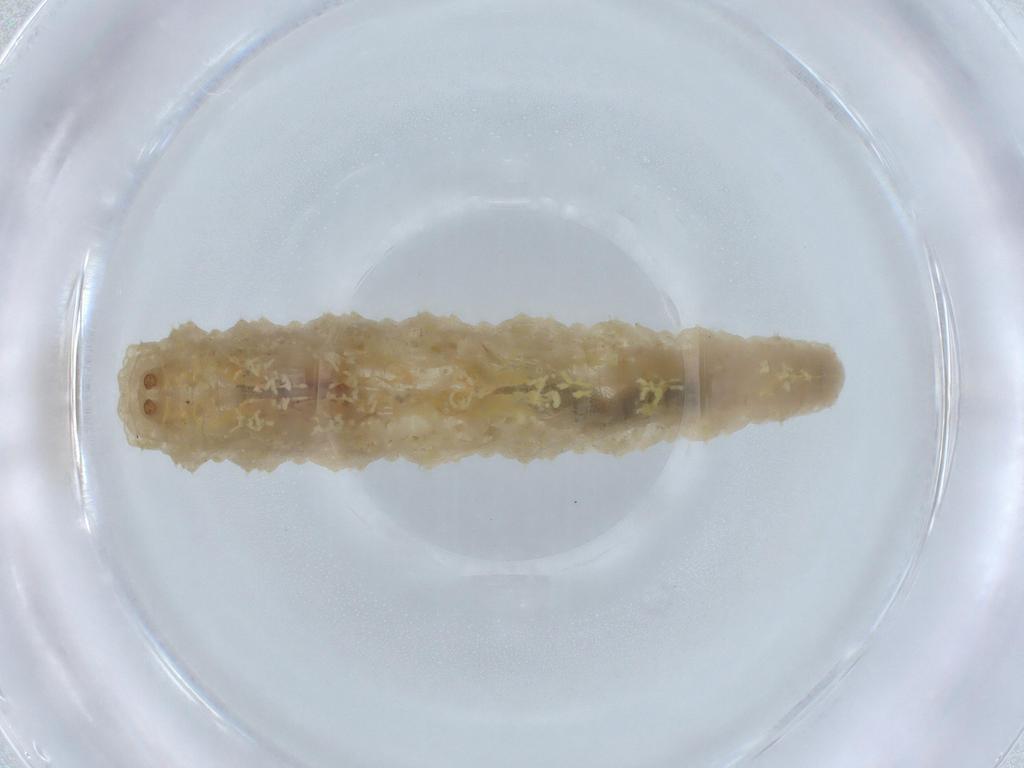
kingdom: Animalia
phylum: Arthropoda
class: Insecta
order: Diptera
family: Syrphidae
